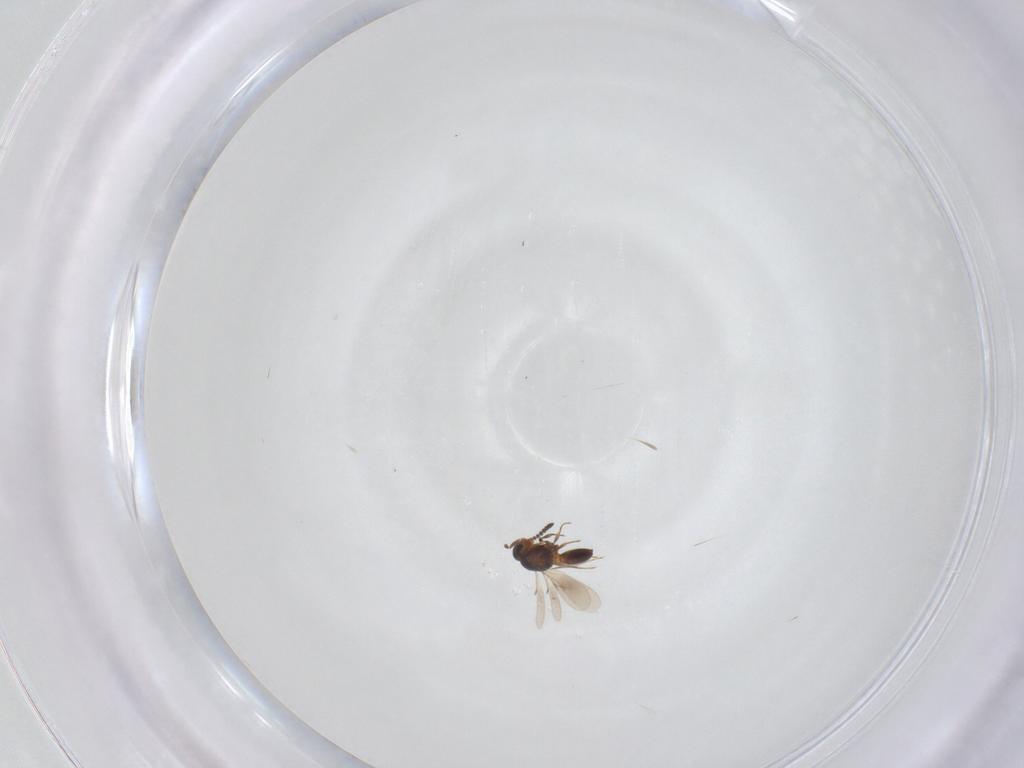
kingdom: Animalia
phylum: Arthropoda
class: Insecta
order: Hymenoptera
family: Scelionidae
